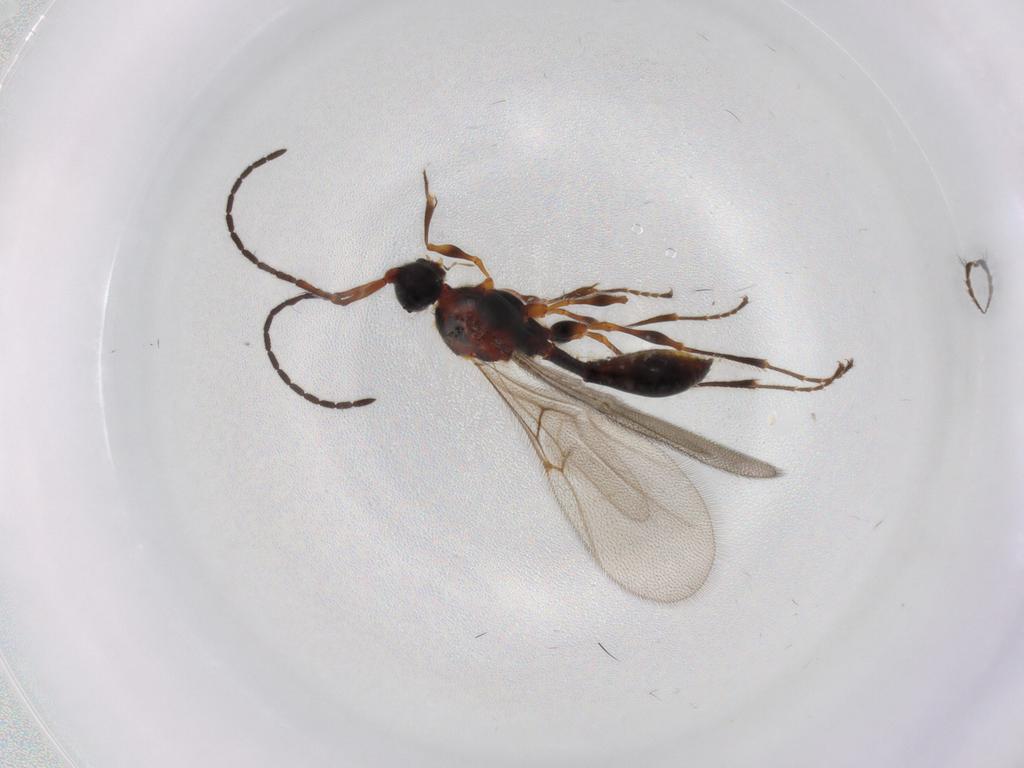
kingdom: Animalia
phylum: Arthropoda
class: Insecta
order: Hymenoptera
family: Diapriidae
